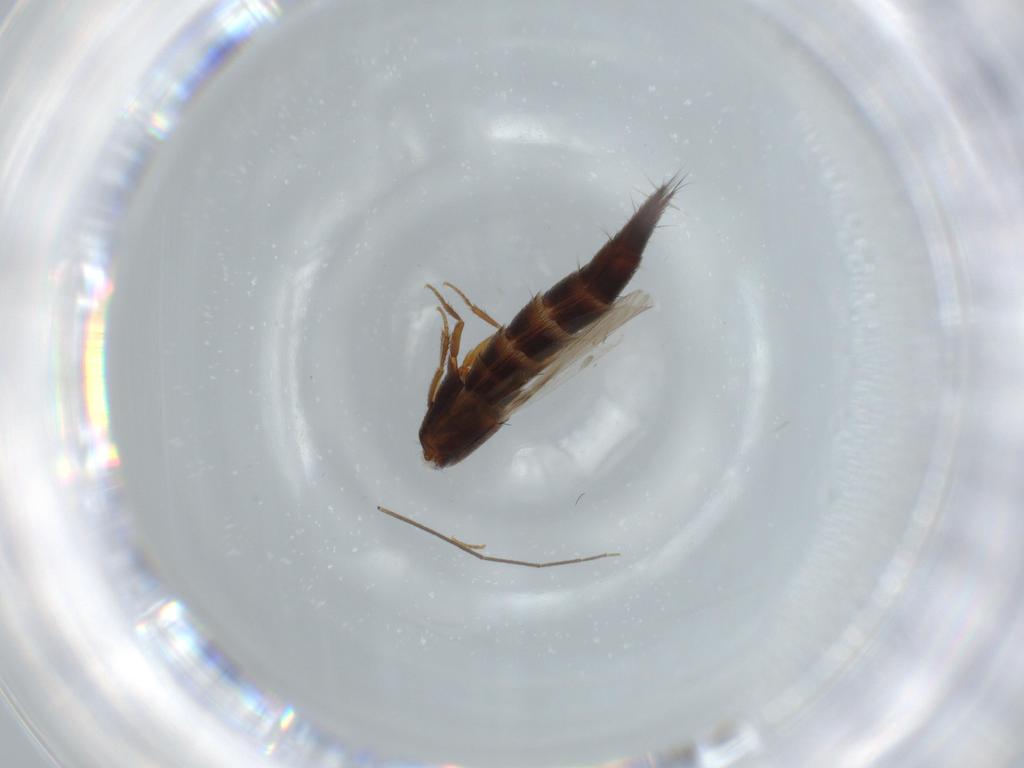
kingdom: Animalia
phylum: Arthropoda
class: Insecta
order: Coleoptera
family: Staphylinidae
